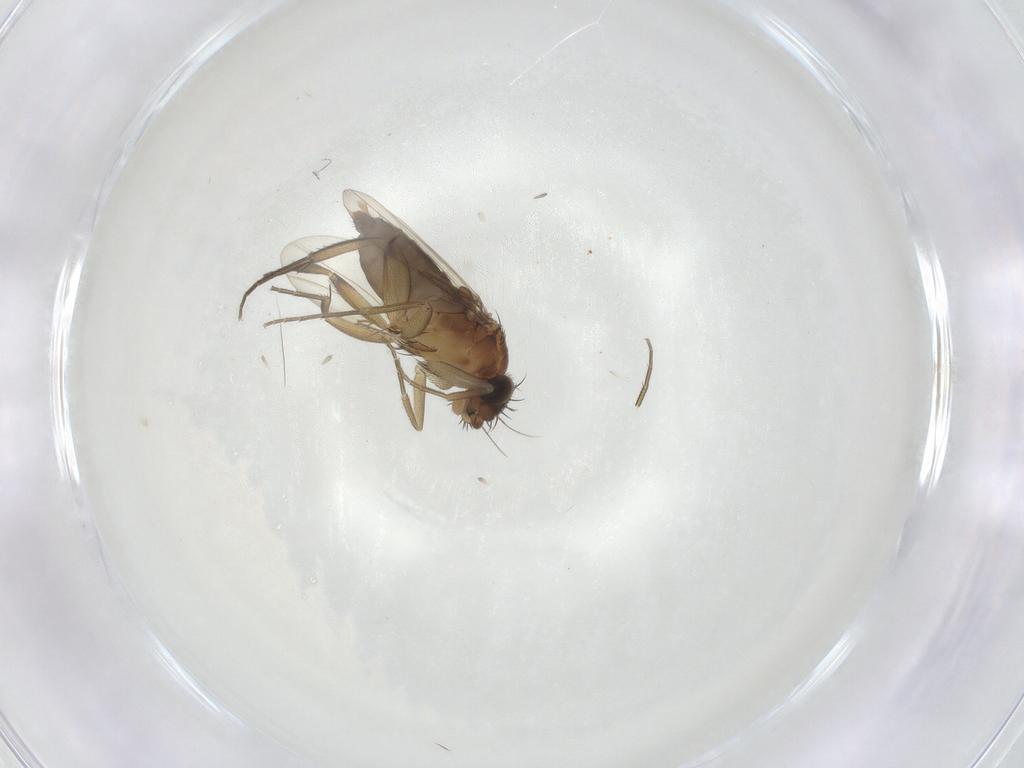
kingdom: Animalia
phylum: Arthropoda
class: Insecta
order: Diptera
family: Phoridae
